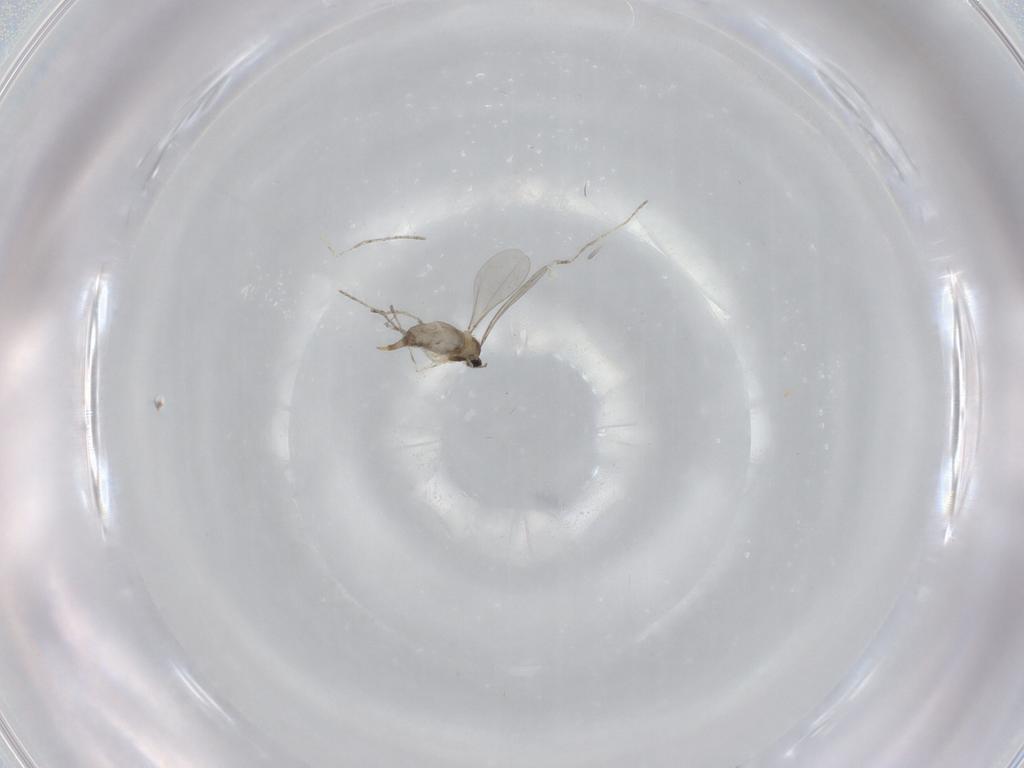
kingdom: Animalia
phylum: Arthropoda
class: Insecta
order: Diptera
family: Cecidomyiidae
